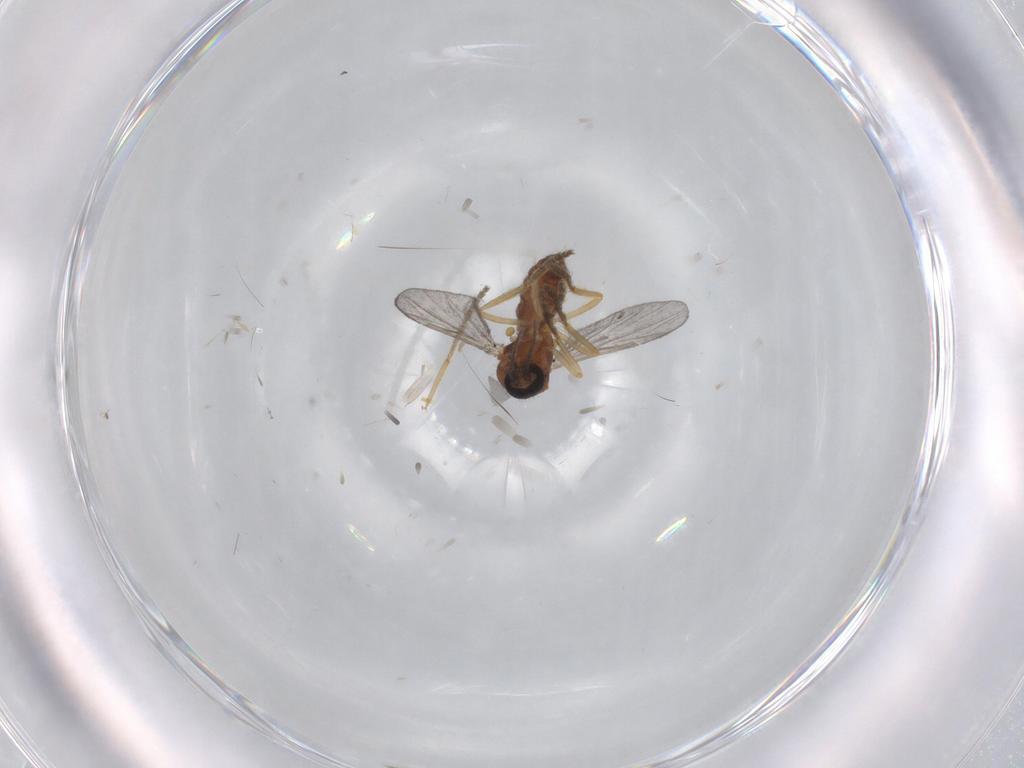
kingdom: Animalia
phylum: Arthropoda
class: Insecta
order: Diptera
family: Ceratopogonidae
